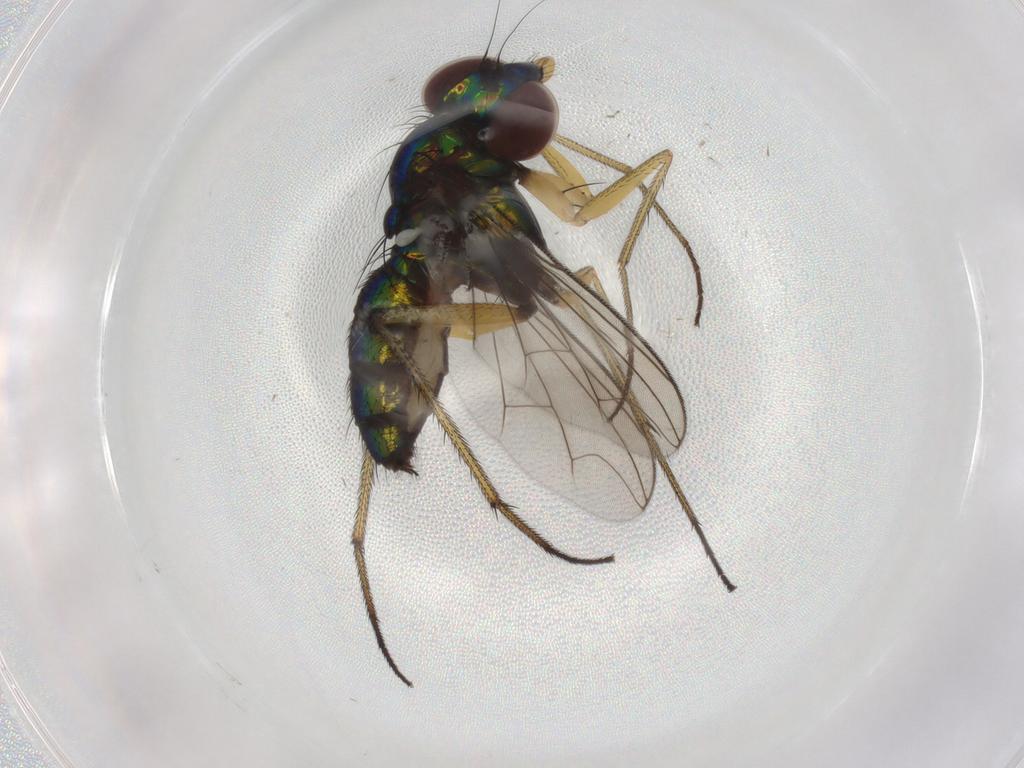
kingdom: Animalia
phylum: Arthropoda
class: Insecta
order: Diptera
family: Dolichopodidae
